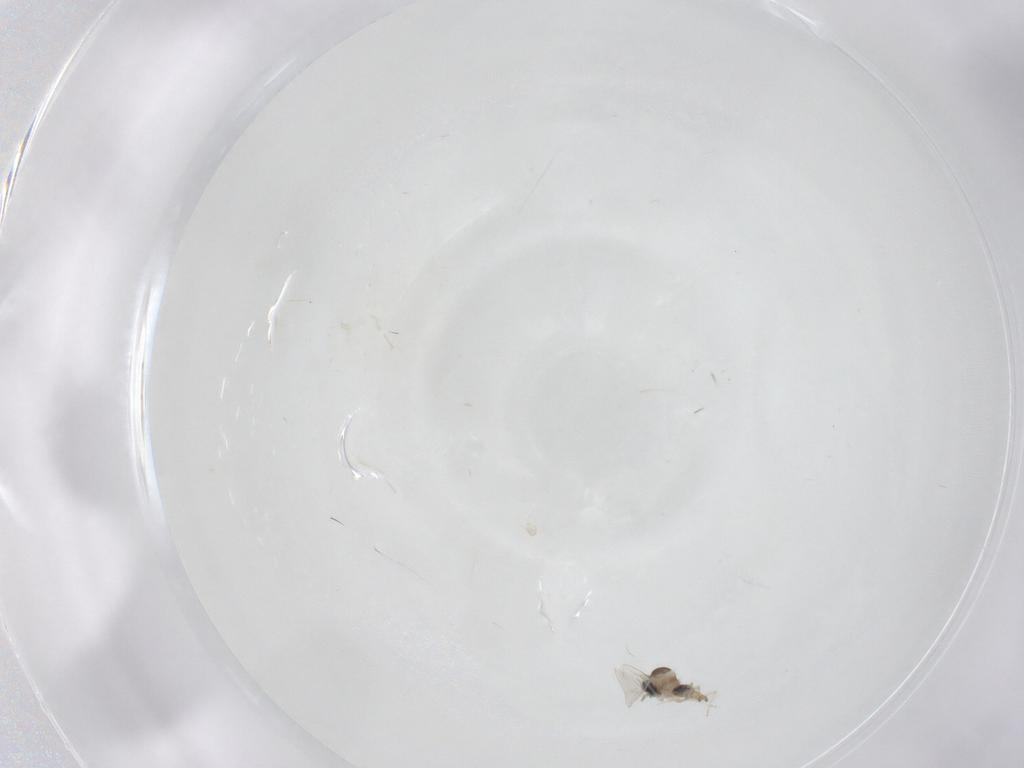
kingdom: Animalia
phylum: Arthropoda
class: Insecta
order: Diptera
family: Cecidomyiidae
